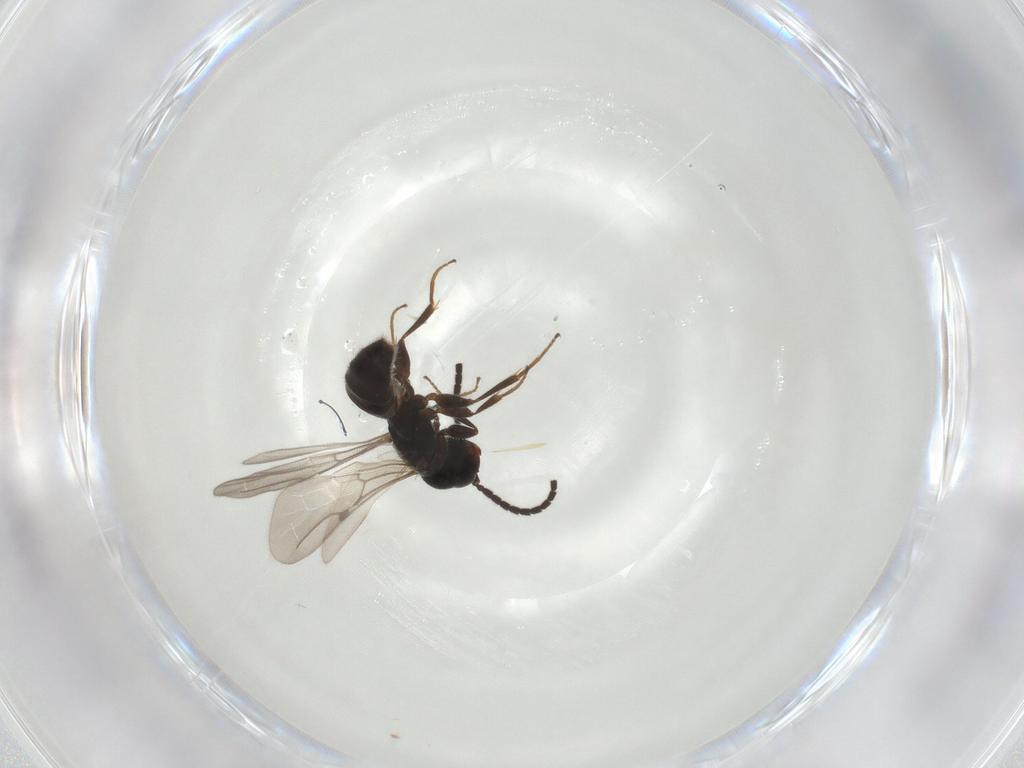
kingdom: Animalia
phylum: Arthropoda
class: Insecta
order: Hymenoptera
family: Bethylidae
